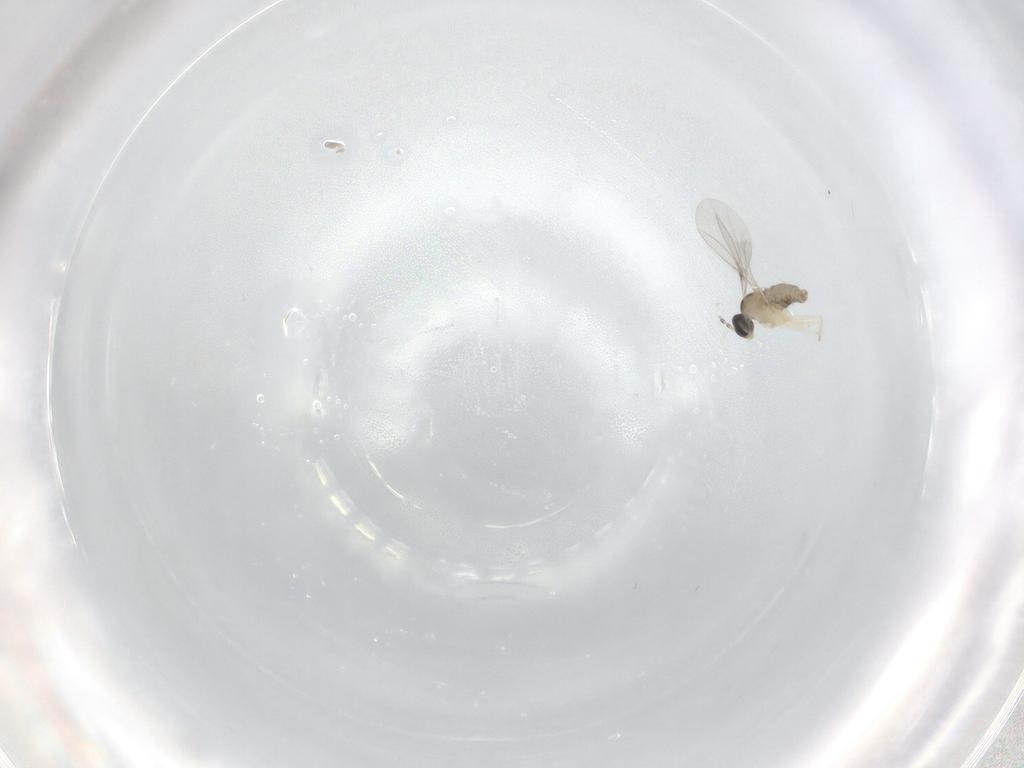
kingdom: Animalia
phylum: Arthropoda
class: Insecta
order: Diptera
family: Cecidomyiidae
